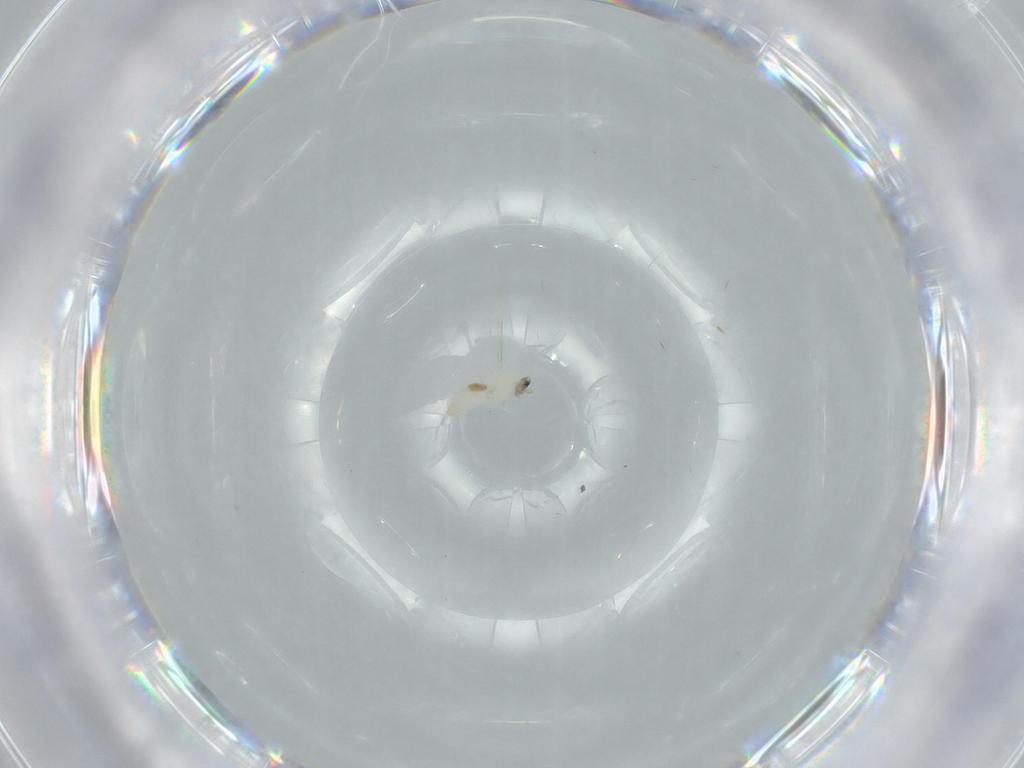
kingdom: Animalia
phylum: Arthropoda
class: Insecta
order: Diptera
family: Cecidomyiidae
